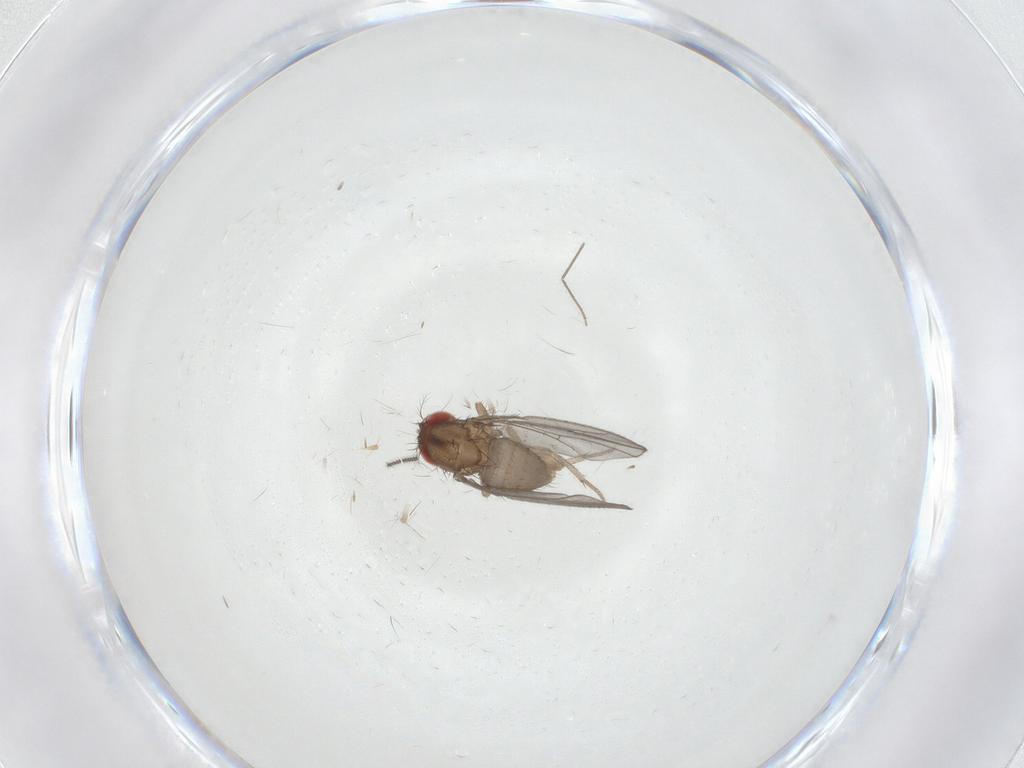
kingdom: Animalia
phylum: Arthropoda
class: Insecta
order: Diptera
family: Drosophilidae
